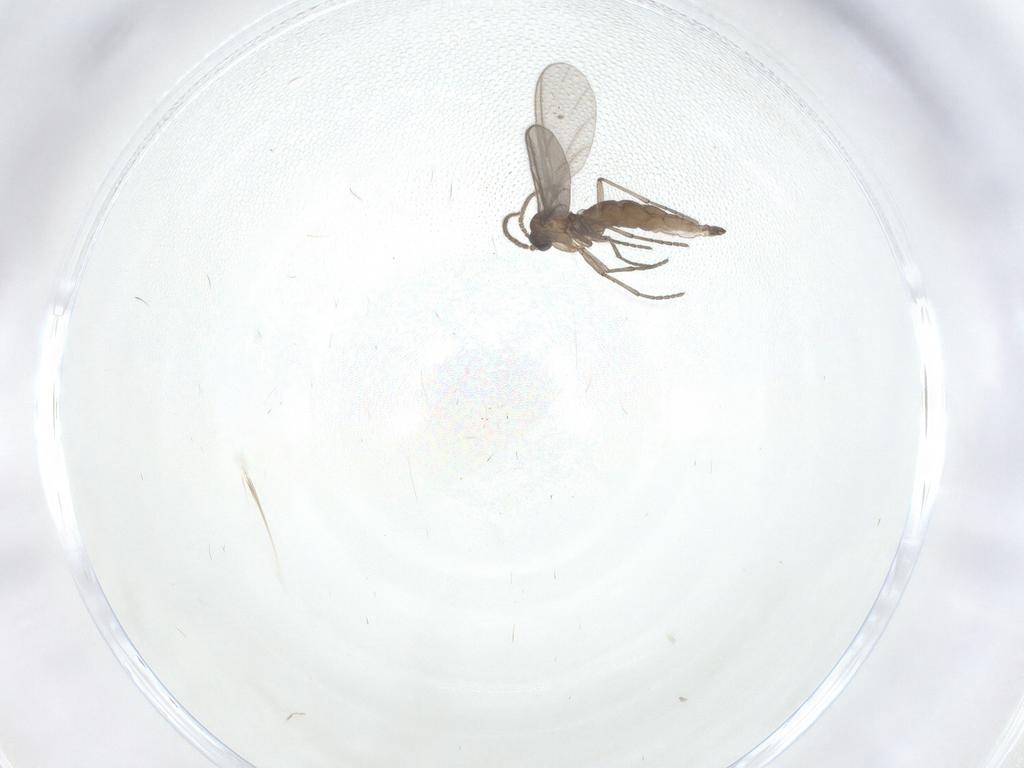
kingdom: Animalia
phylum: Arthropoda
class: Insecta
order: Diptera
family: Sciaridae
